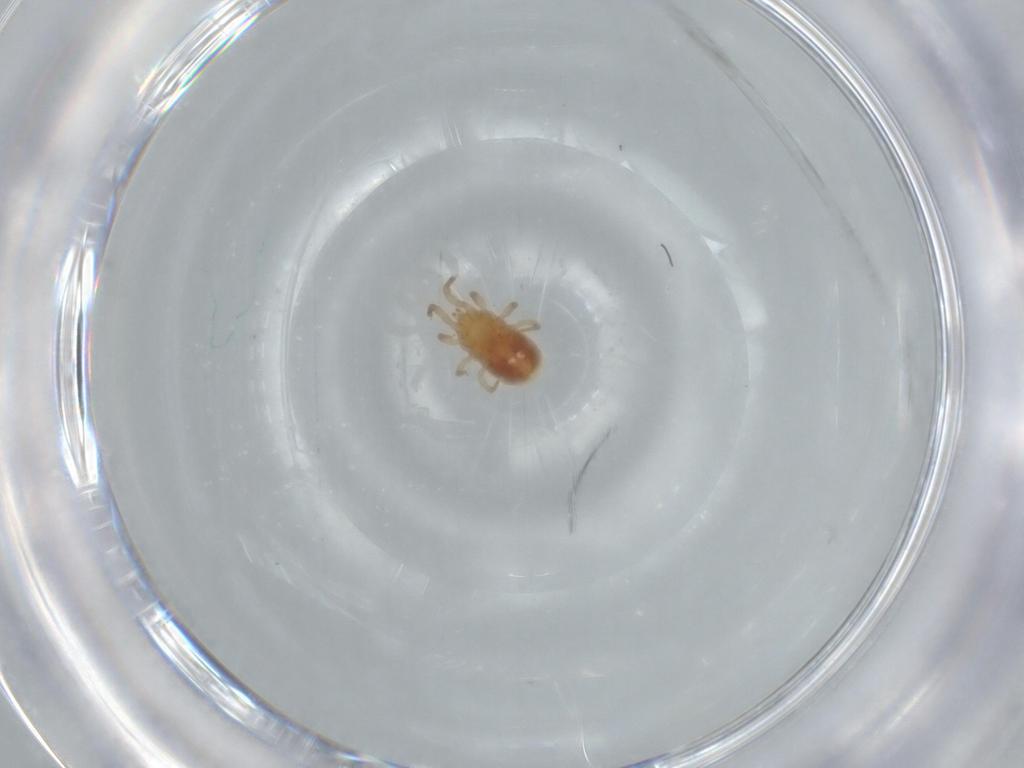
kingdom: Animalia
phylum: Arthropoda
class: Arachnida
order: Mesostigmata
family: Dermanyssidae
